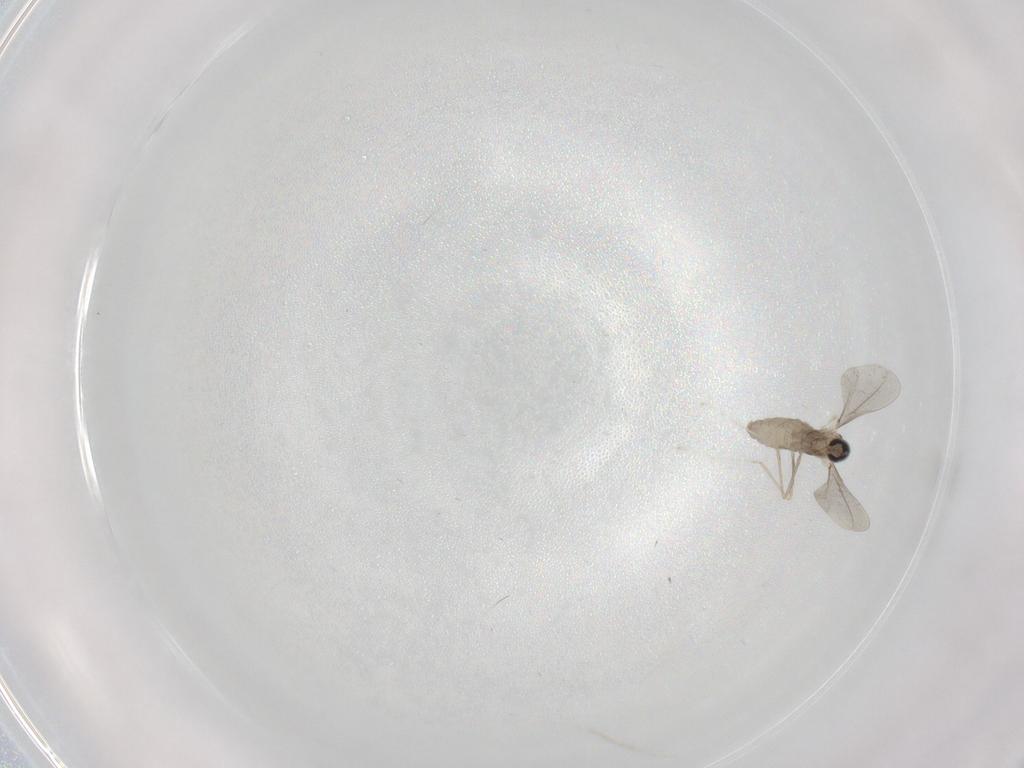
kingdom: Animalia
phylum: Arthropoda
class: Insecta
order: Diptera
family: Cecidomyiidae
